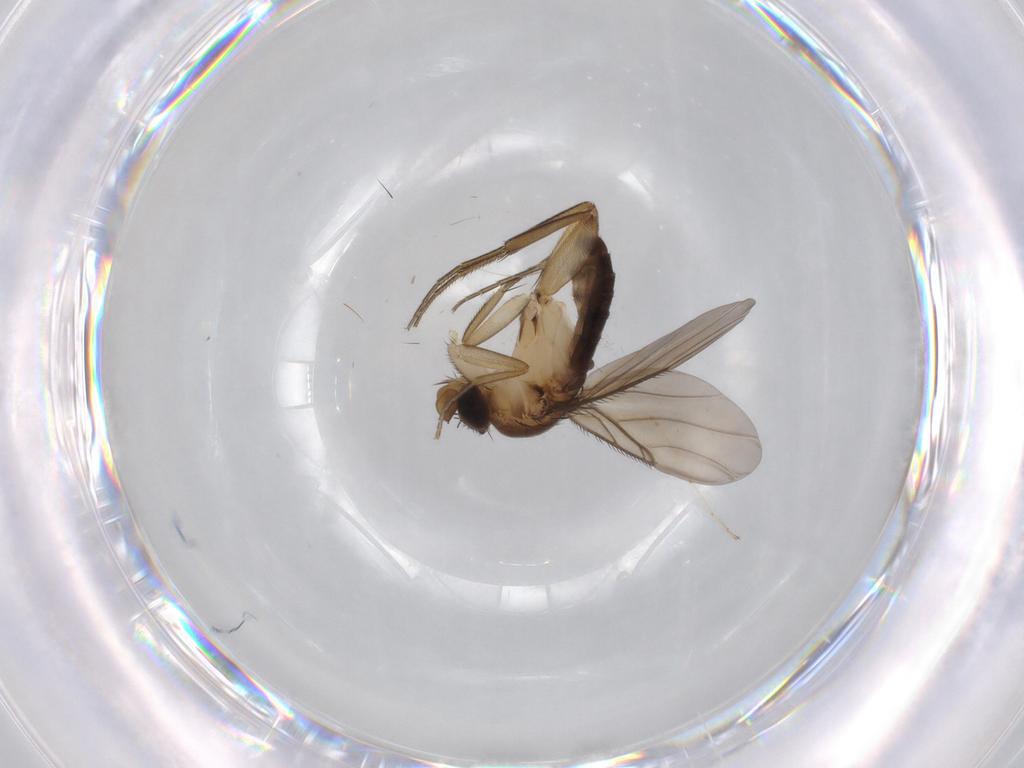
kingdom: Animalia
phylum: Arthropoda
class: Insecta
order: Diptera
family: Phoridae
